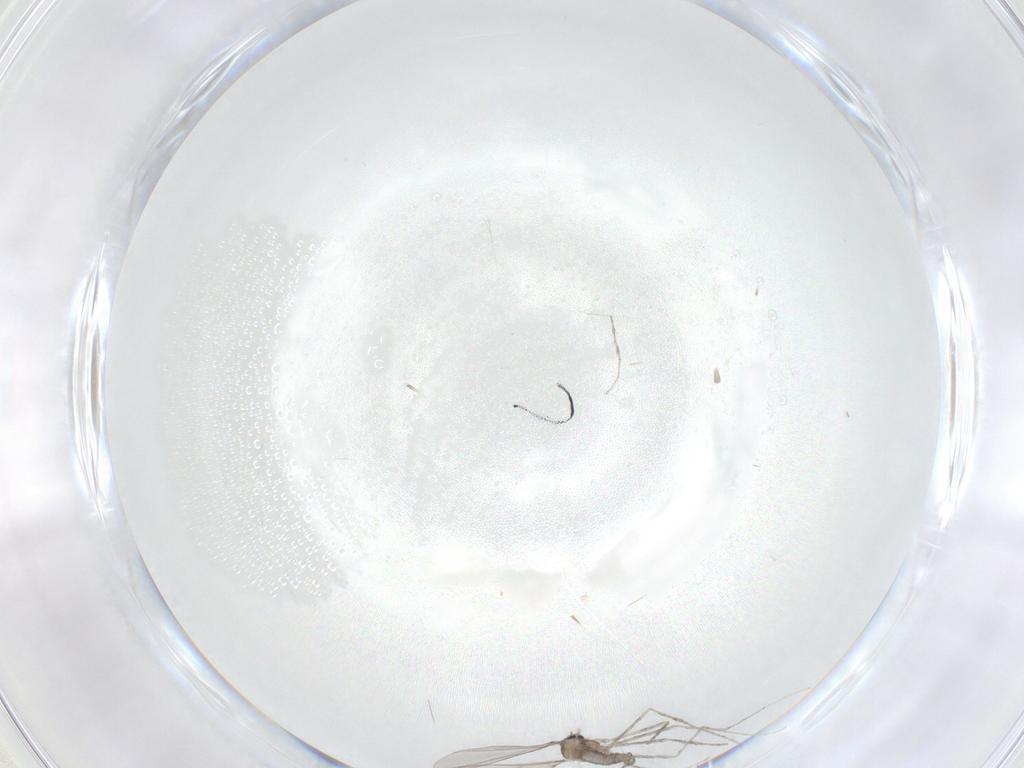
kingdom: Animalia
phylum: Arthropoda
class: Insecta
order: Diptera
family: Cecidomyiidae
